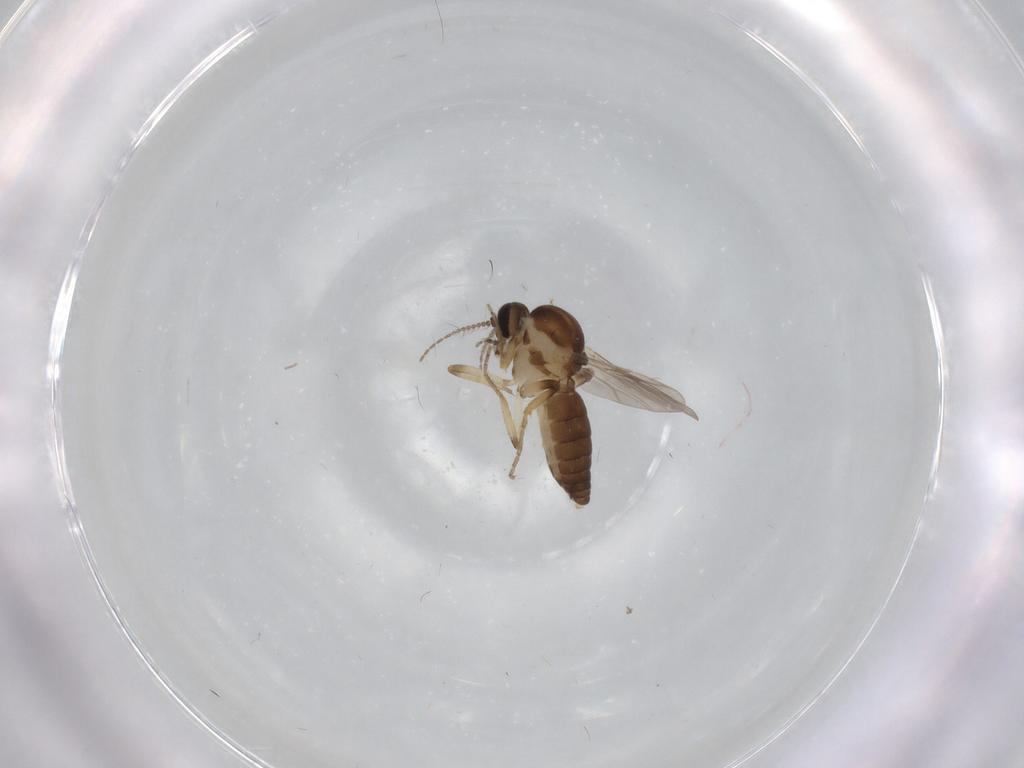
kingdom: Animalia
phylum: Arthropoda
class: Insecta
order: Diptera
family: Ceratopogonidae
